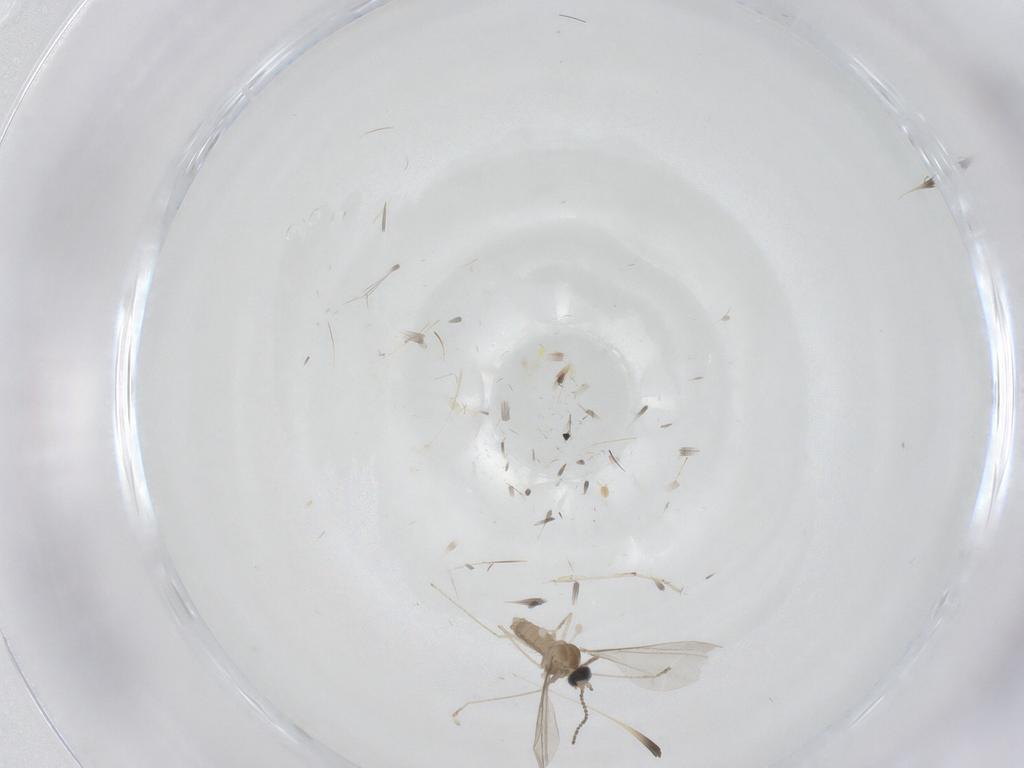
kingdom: Animalia
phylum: Arthropoda
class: Insecta
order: Diptera
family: Cecidomyiidae
